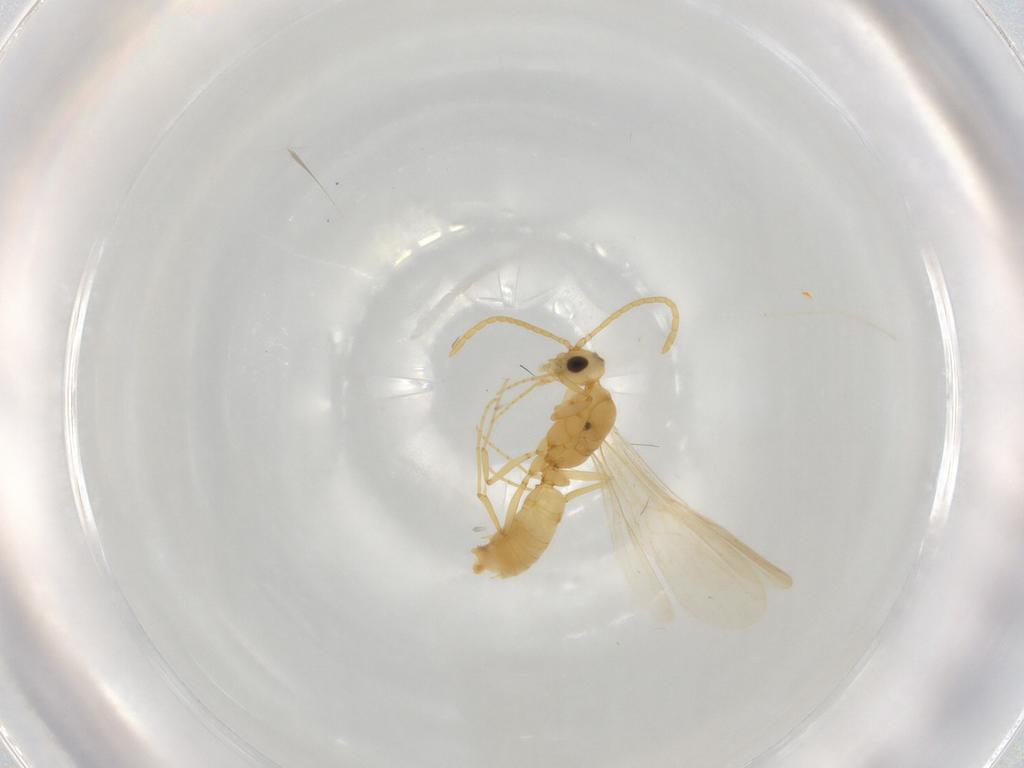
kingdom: Animalia
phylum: Arthropoda
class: Insecta
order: Hymenoptera
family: Formicidae
